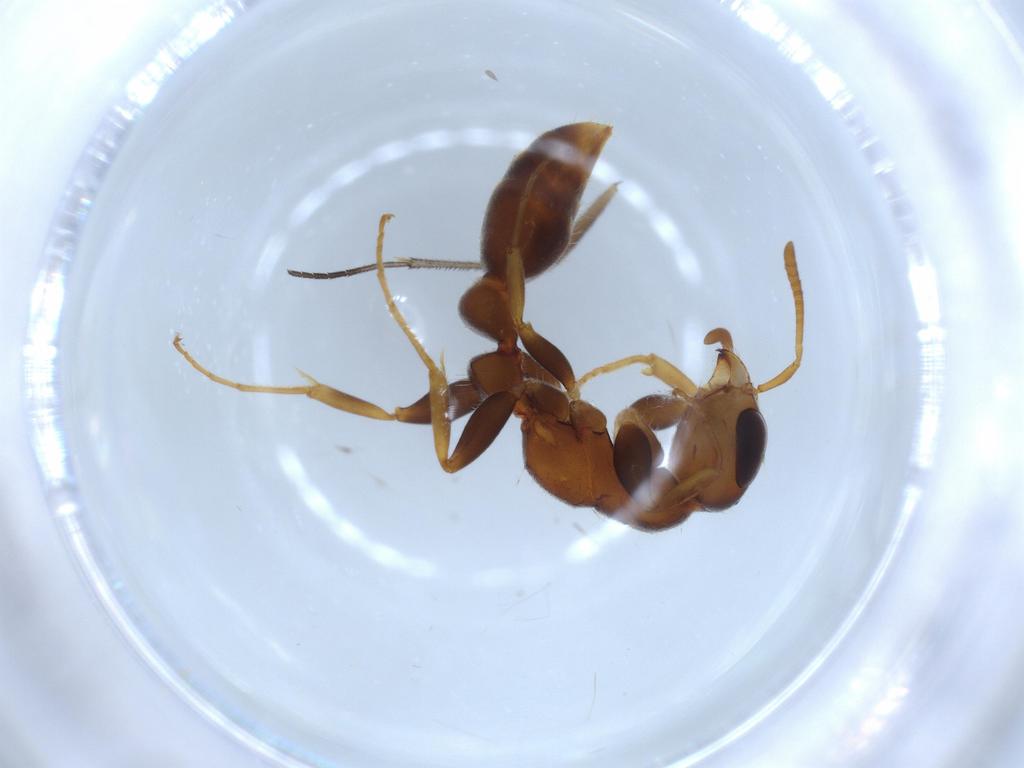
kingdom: Animalia
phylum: Arthropoda
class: Insecta
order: Hymenoptera
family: Formicidae
